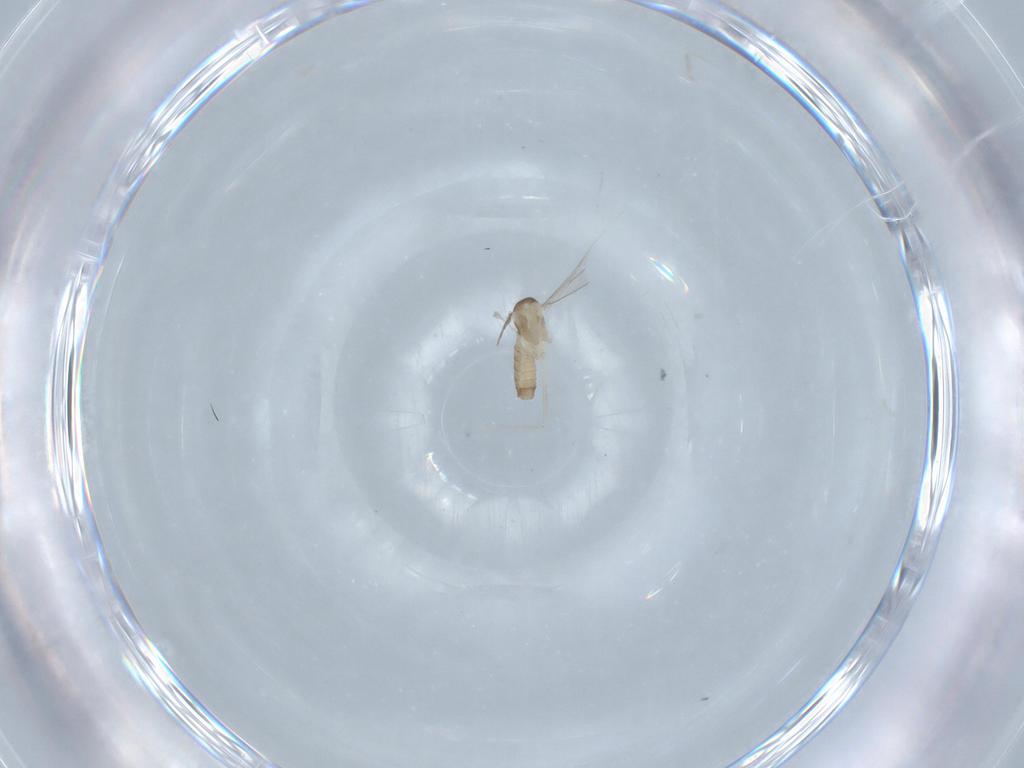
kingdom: Animalia
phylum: Arthropoda
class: Insecta
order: Diptera
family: Cecidomyiidae
